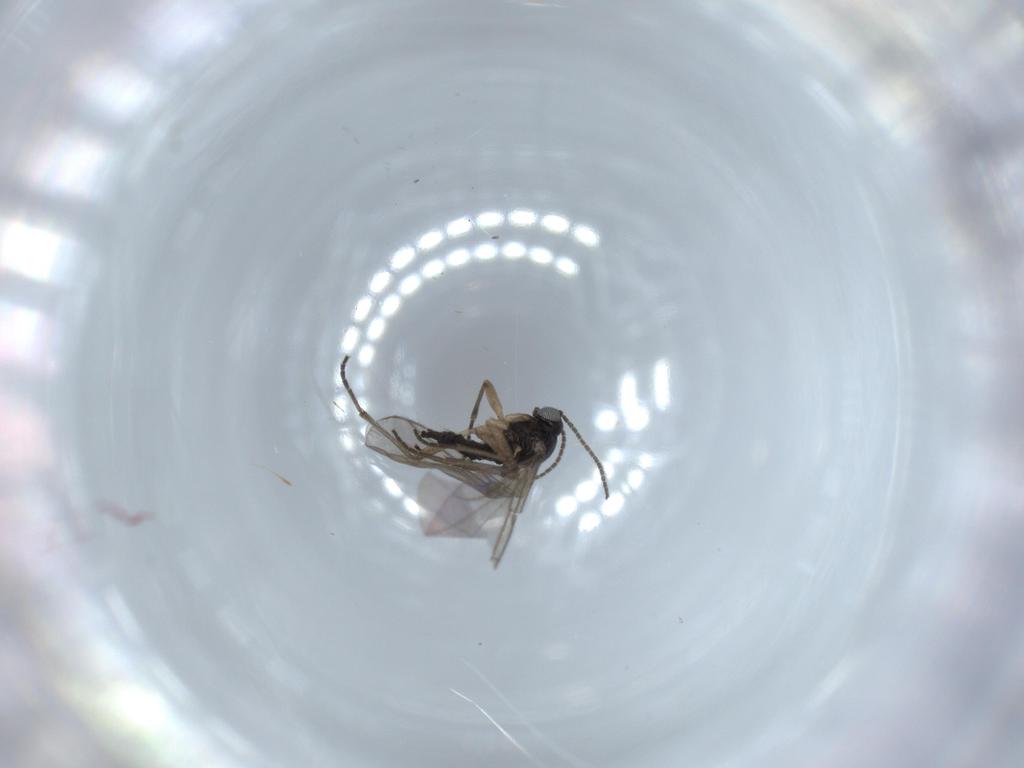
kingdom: Animalia
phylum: Arthropoda
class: Insecta
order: Diptera
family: Sciaridae
